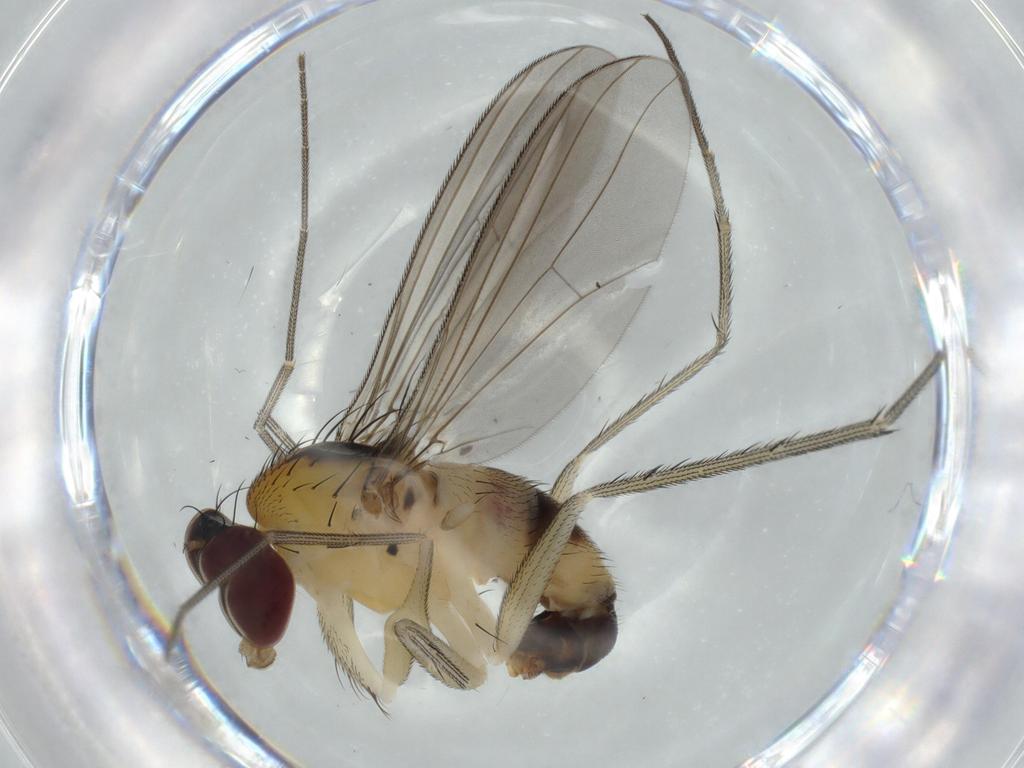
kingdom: Animalia
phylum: Arthropoda
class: Insecta
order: Diptera
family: Dolichopodidae
